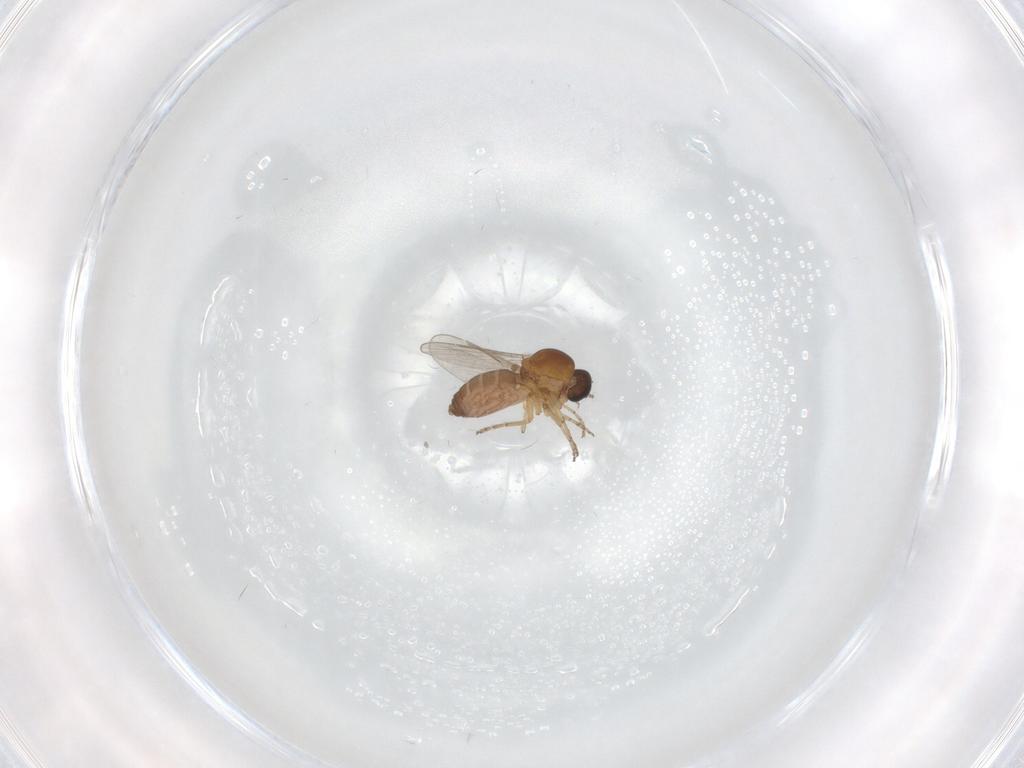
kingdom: Animalia
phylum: Arthropoda
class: Insecta
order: Diptera
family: Chironomidae
